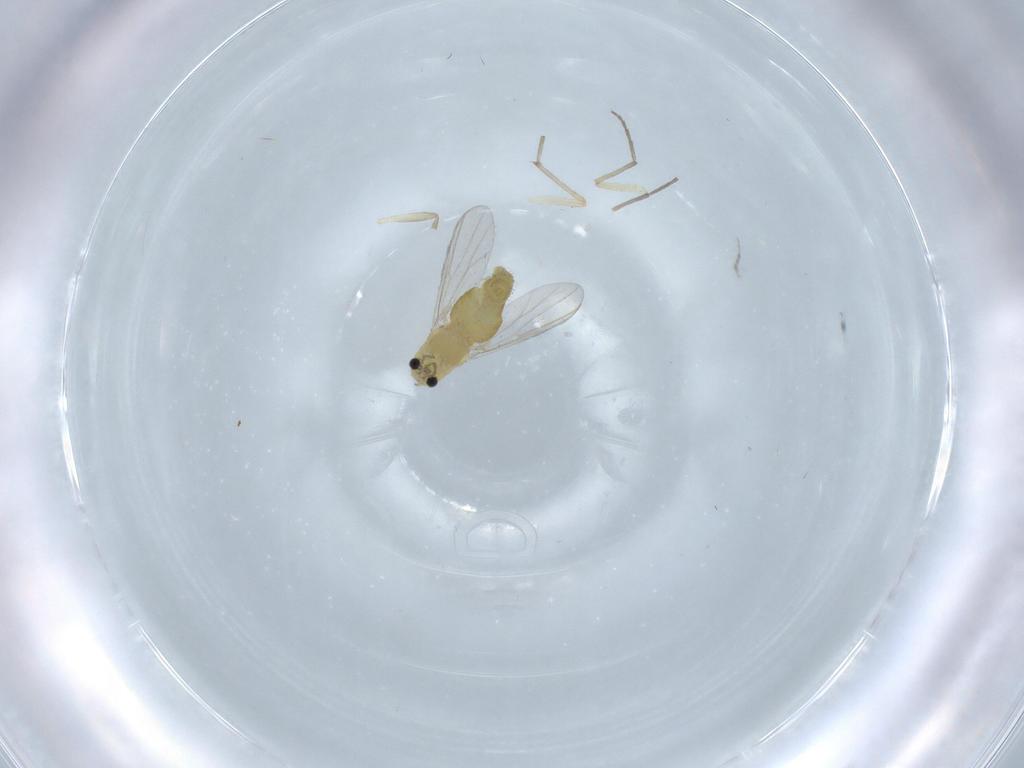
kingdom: Animalia
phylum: Arthropoda
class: Insecta
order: Diptera
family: Chironomidae
